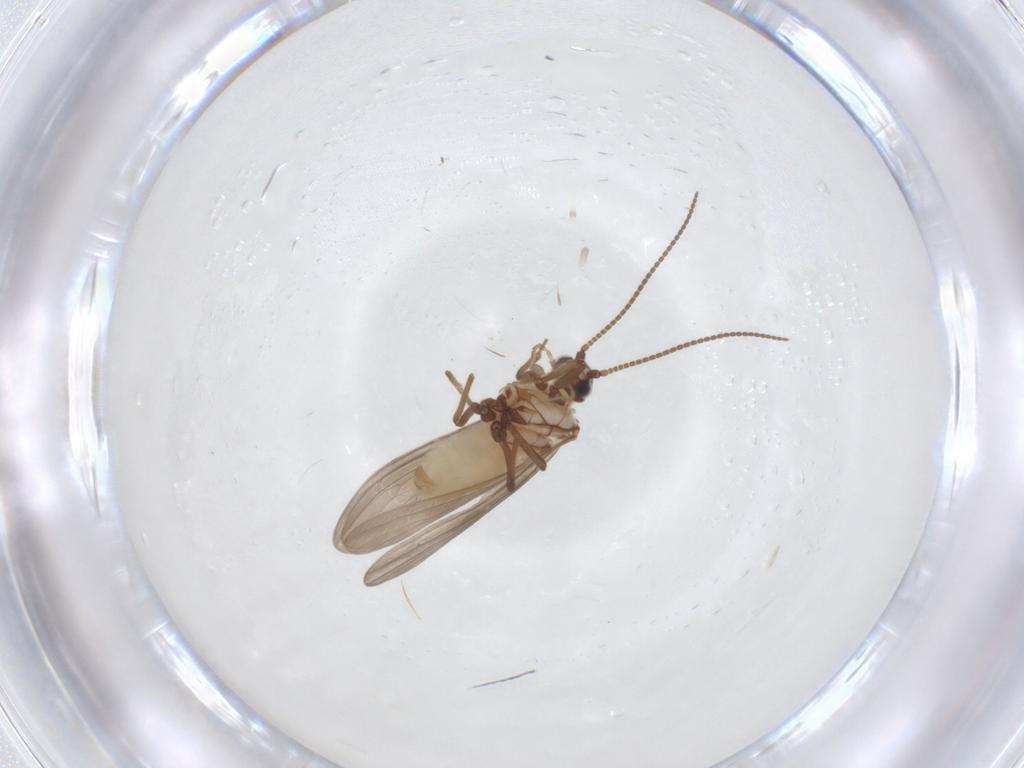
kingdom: Animalia
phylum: Arthropoda
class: Insecta
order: Neuroptera
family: Coniopterygidae
